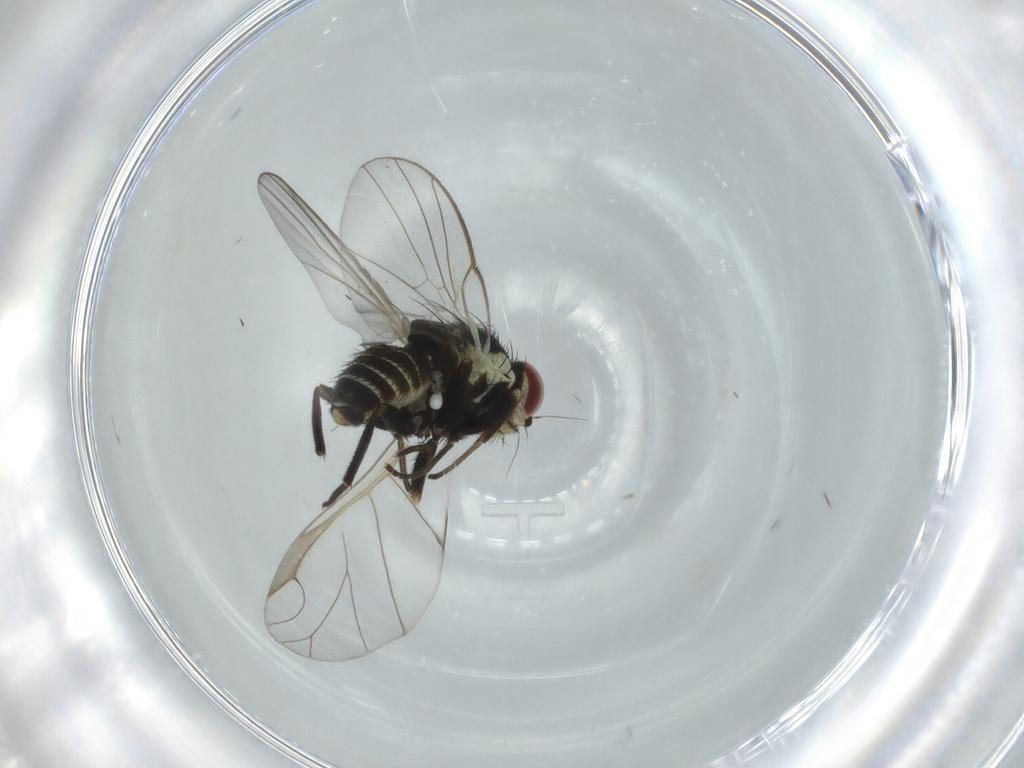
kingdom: Animalia
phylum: Arthropoda
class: Insecta
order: Diptera
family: Agromyzidae
